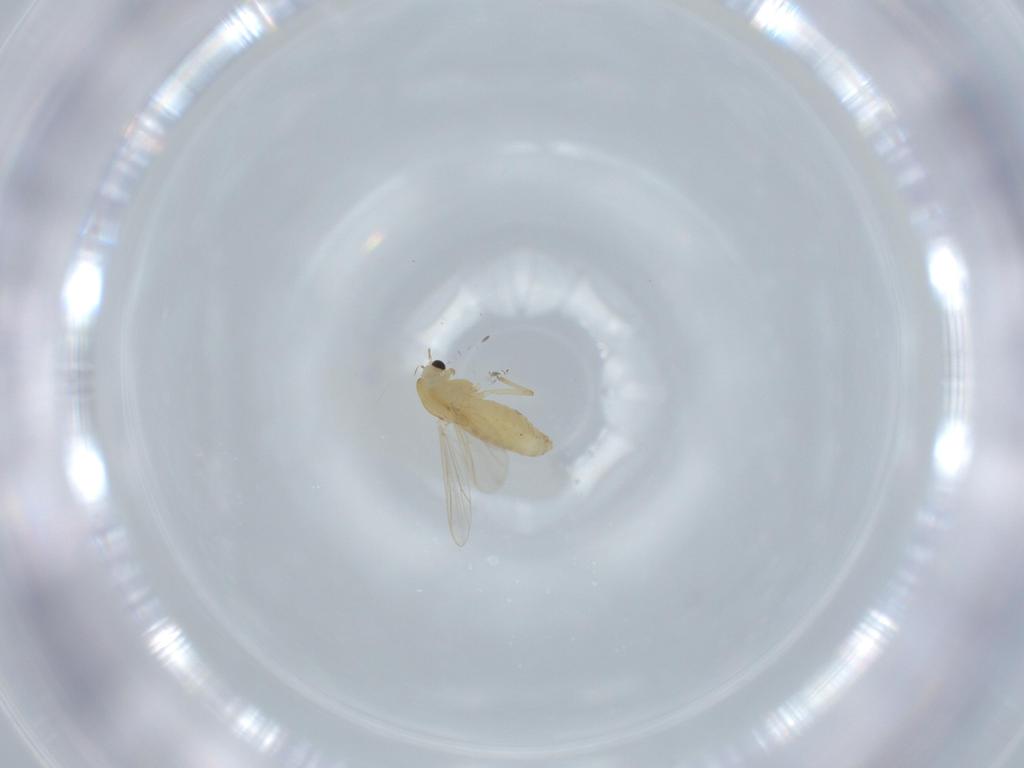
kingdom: Animalia
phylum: Arthropoda
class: Insecta
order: Diptera
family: Chironomidae
